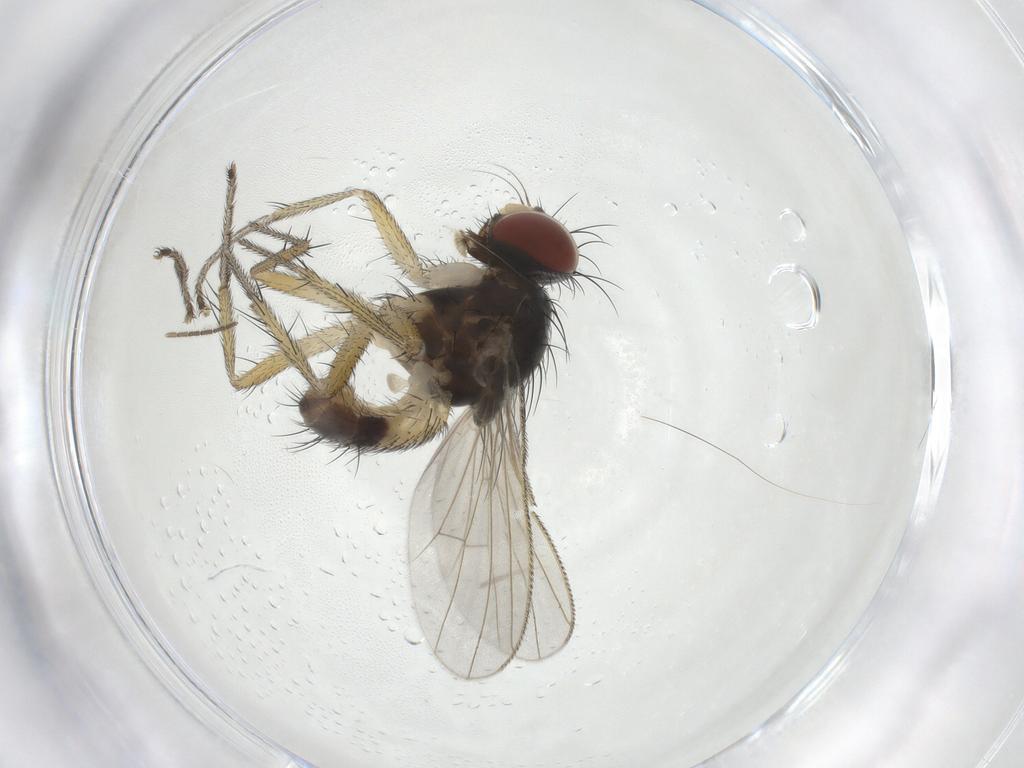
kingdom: Animalia
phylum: Arthropoda
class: Insecta
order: Diptera
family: Muscidae
